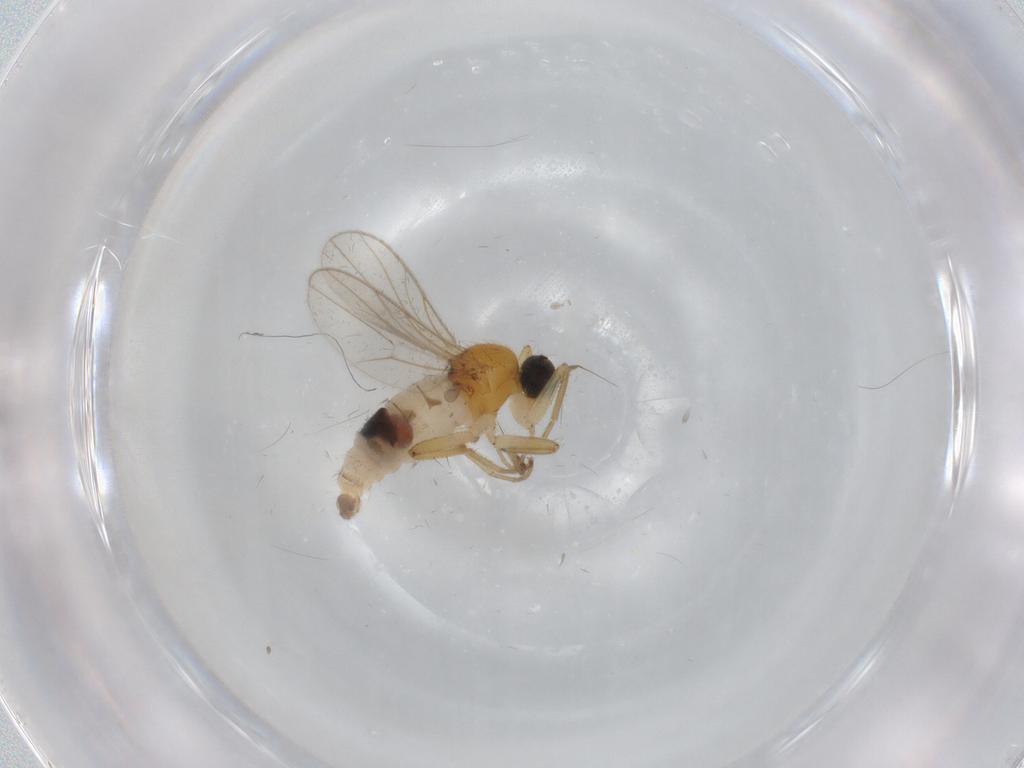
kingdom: Animalia
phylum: Arthropoda
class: Insecta
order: Diptera
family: Hybotidae
